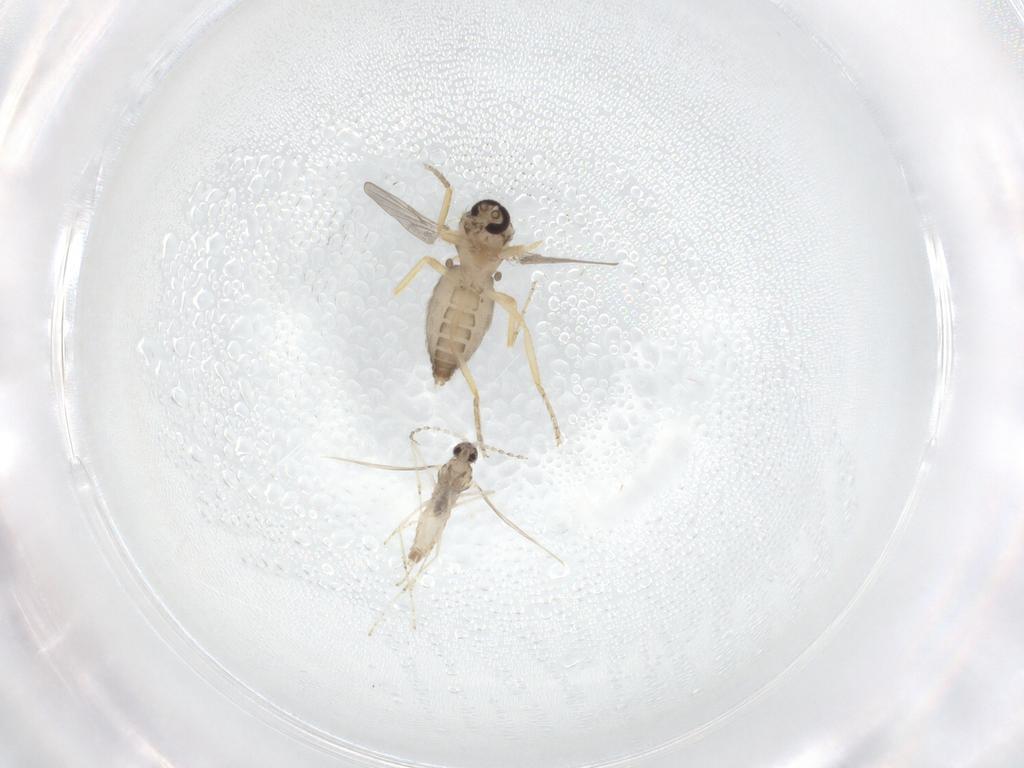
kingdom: Animalia
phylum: Arthropoda
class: Insecta
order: Diptera
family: Ceratopogonidae
